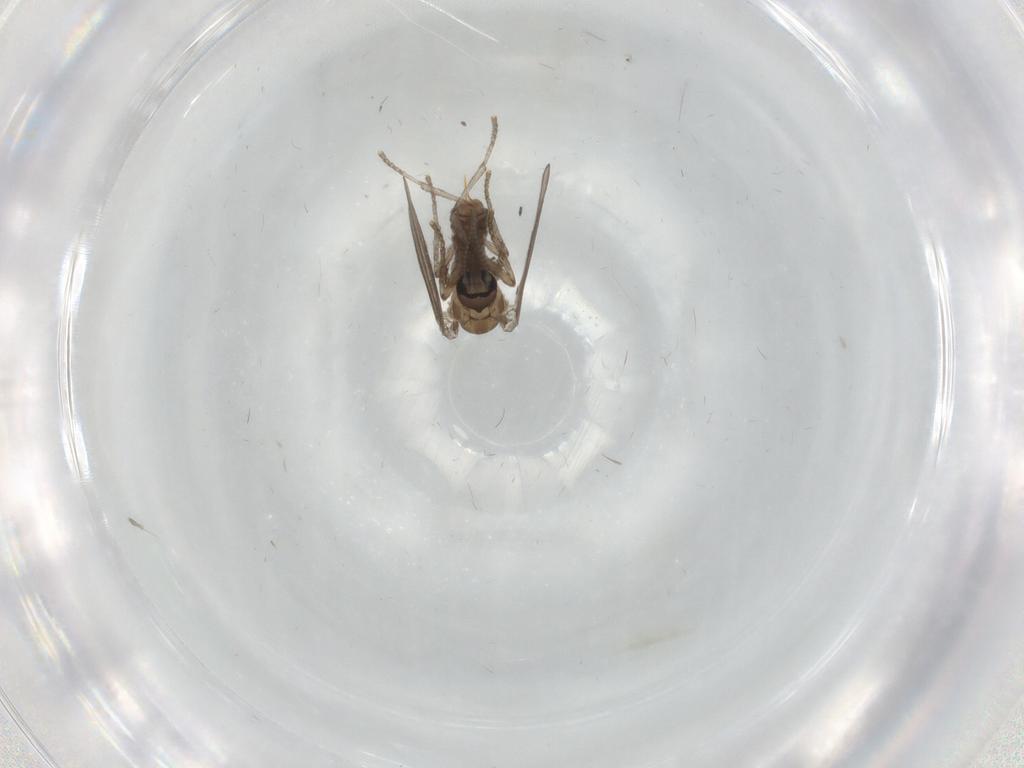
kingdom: Animalia
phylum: Arthropoda
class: Insecta
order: Diptera
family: Psychodidae
